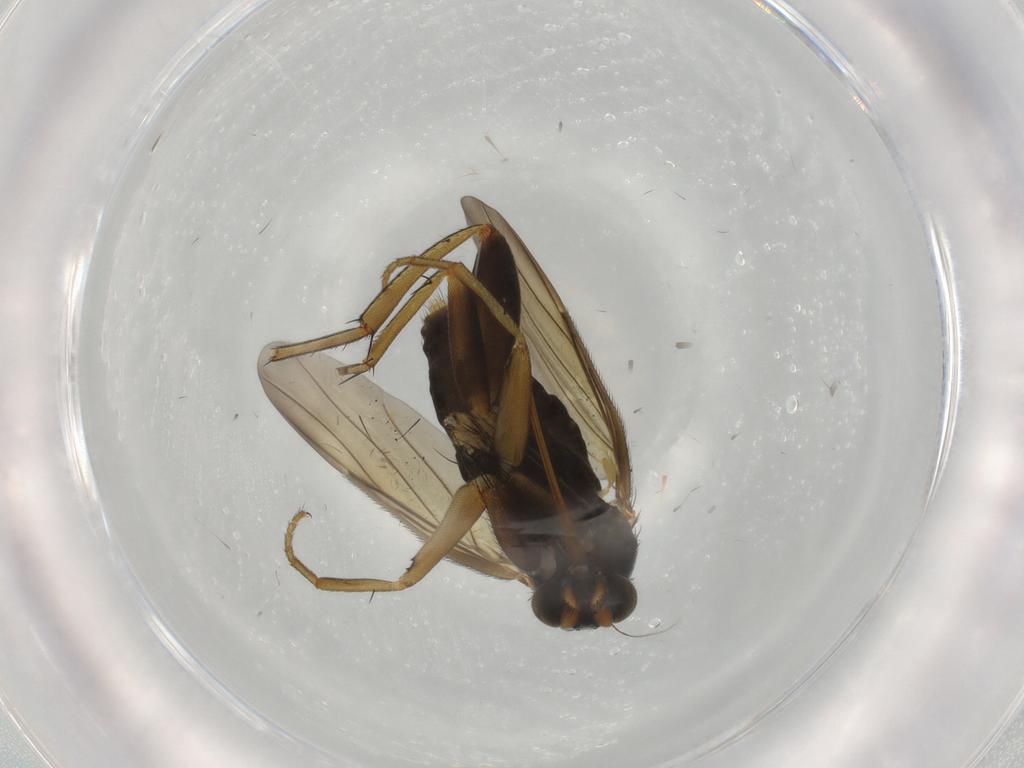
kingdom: Animalia
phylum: Arthropoda
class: Insecta
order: Diptera
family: Phoridae
